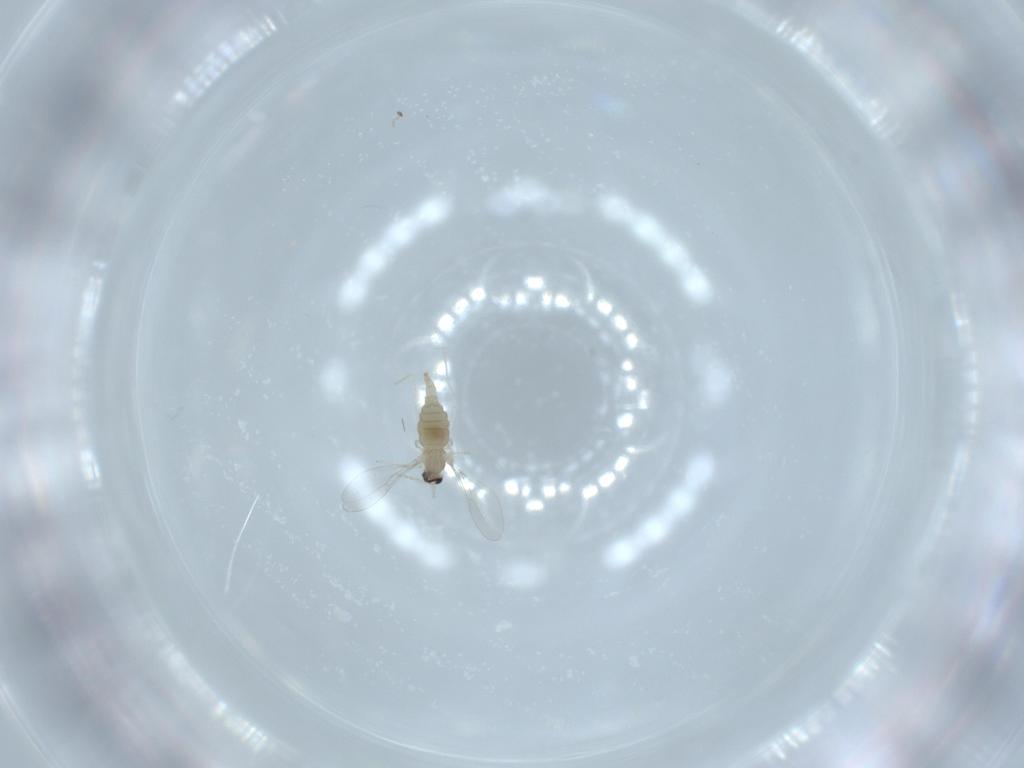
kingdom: Animalia
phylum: Arthropoda
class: Insecta
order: Diptera
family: Cecidomyiidae
